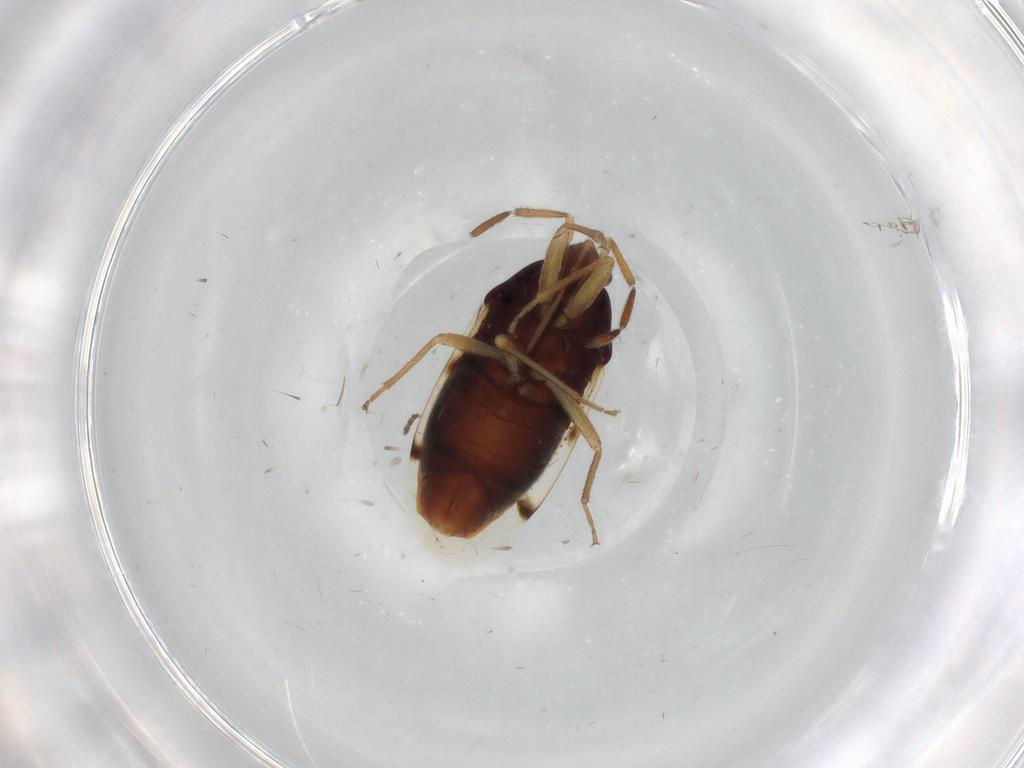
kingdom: Animalia
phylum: Arthropoda
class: Insecta
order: Hemiptera
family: Rhyparochromidae
